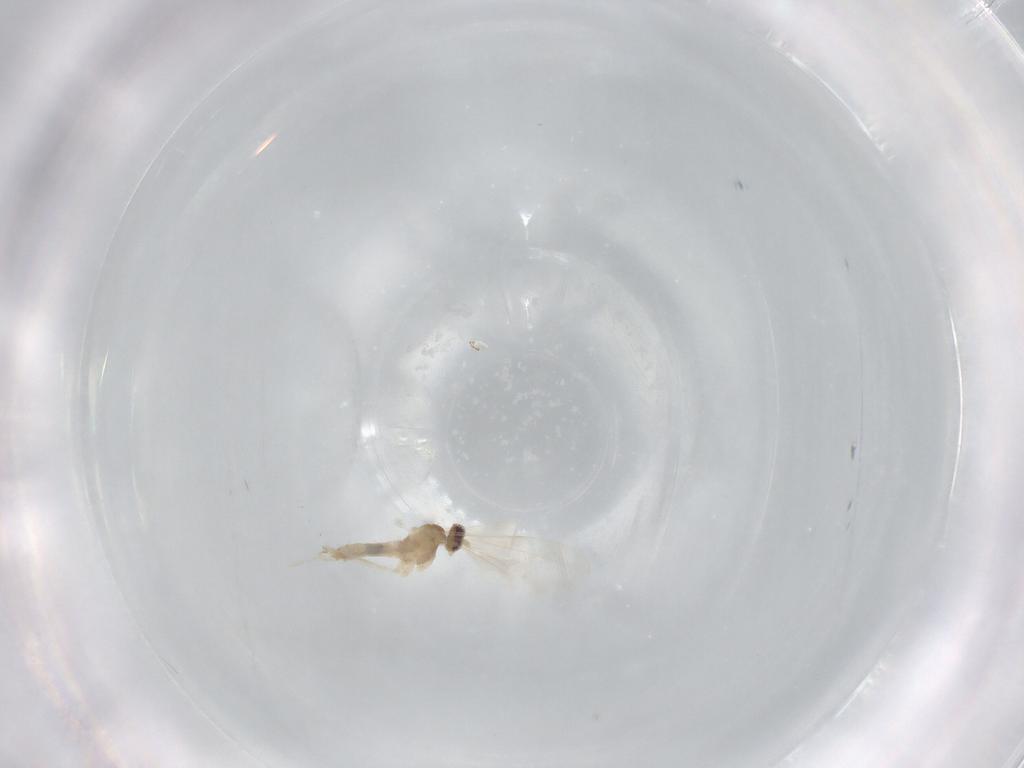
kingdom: Animalia
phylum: Arthropoda
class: Insecta
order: Diptera
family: Cecidomyiidae
